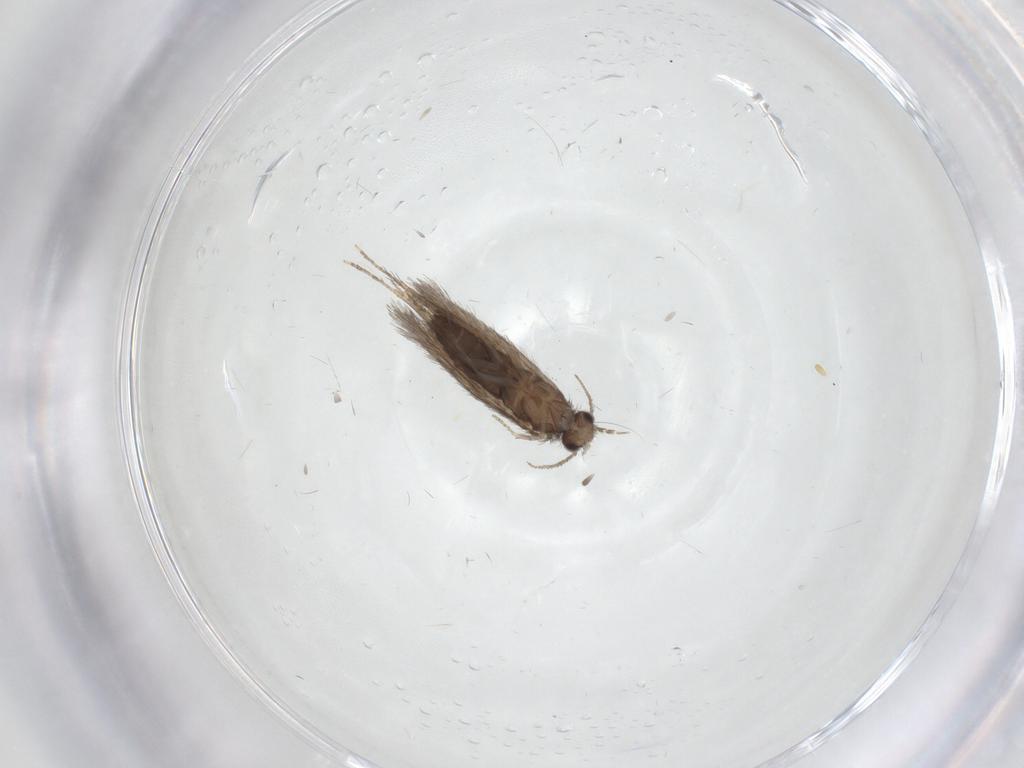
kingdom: Animalia
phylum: Arthropoda
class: Insecta
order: Trichoptera
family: Hydroptilidae
